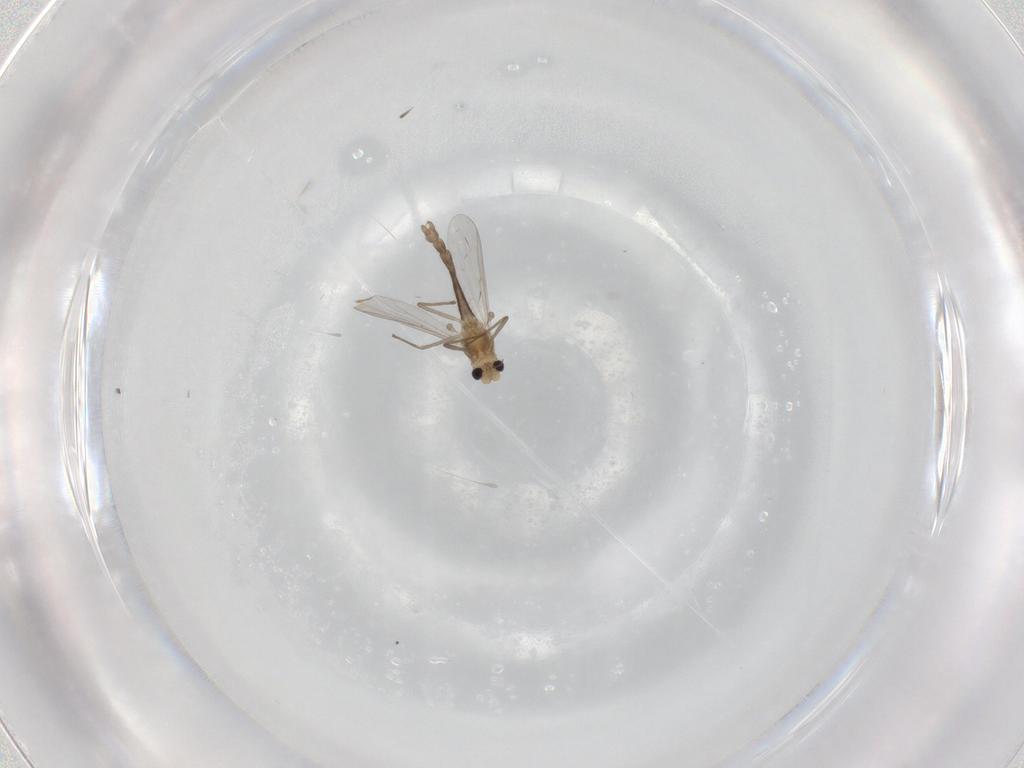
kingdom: Animalia
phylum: Arthropoda
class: Insecta
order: Diptera
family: Chironomidae
